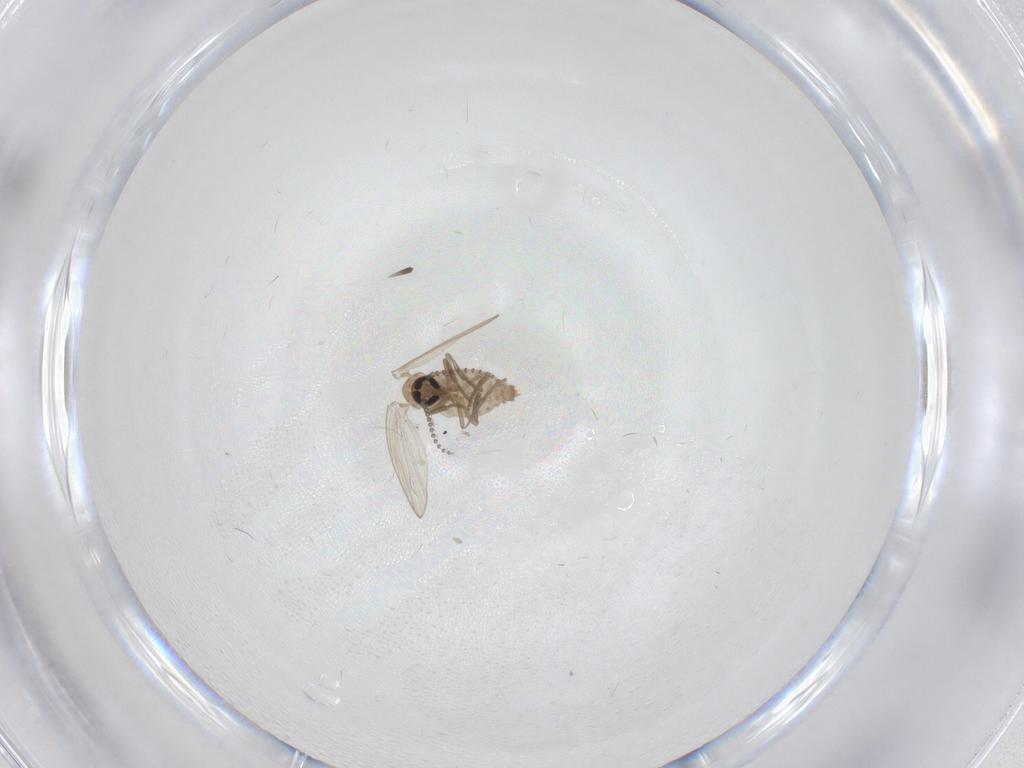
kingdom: Animalia
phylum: Arthropoda
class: Insecta
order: Diptera
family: Psychodidae
